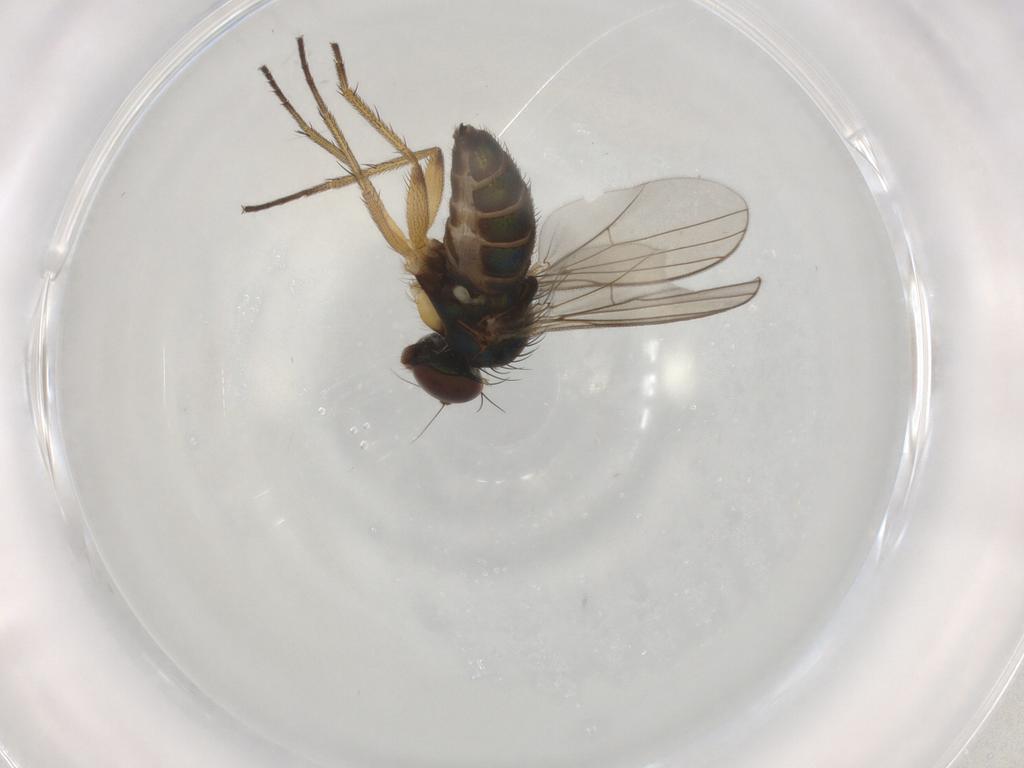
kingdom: Animalia
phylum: Arthropoda
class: Insecta
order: Diptera
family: Dolichopodidae
